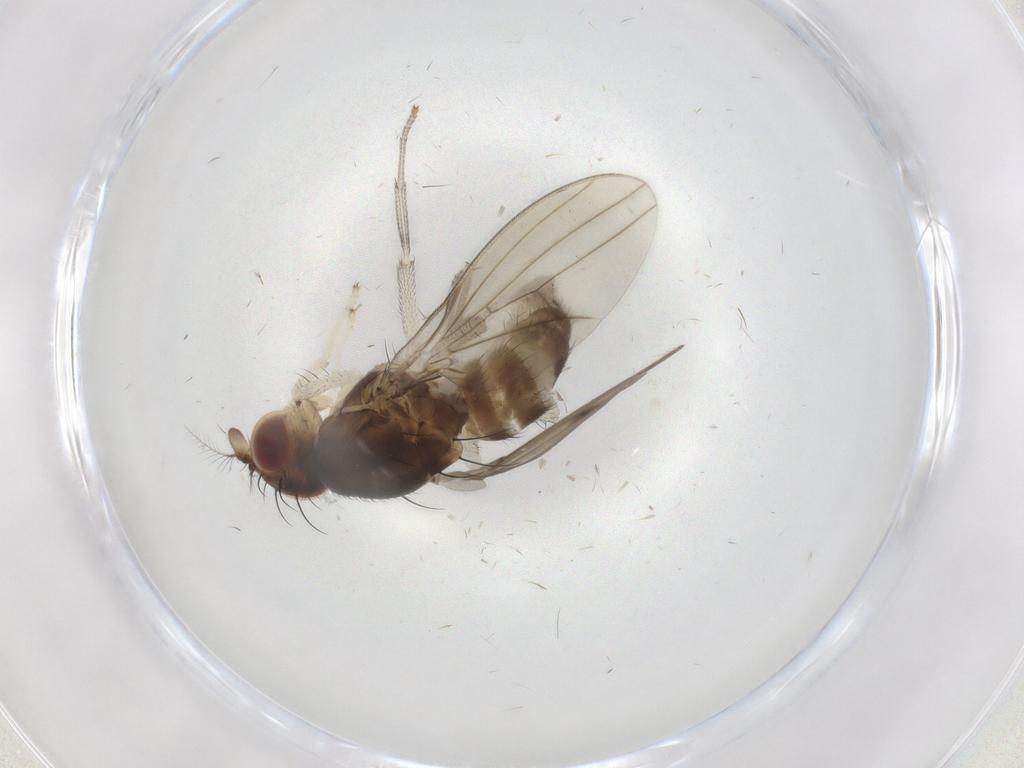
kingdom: Animalia
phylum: Arthropoda
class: Insecta
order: Diptera
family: Cecidomyiidae
